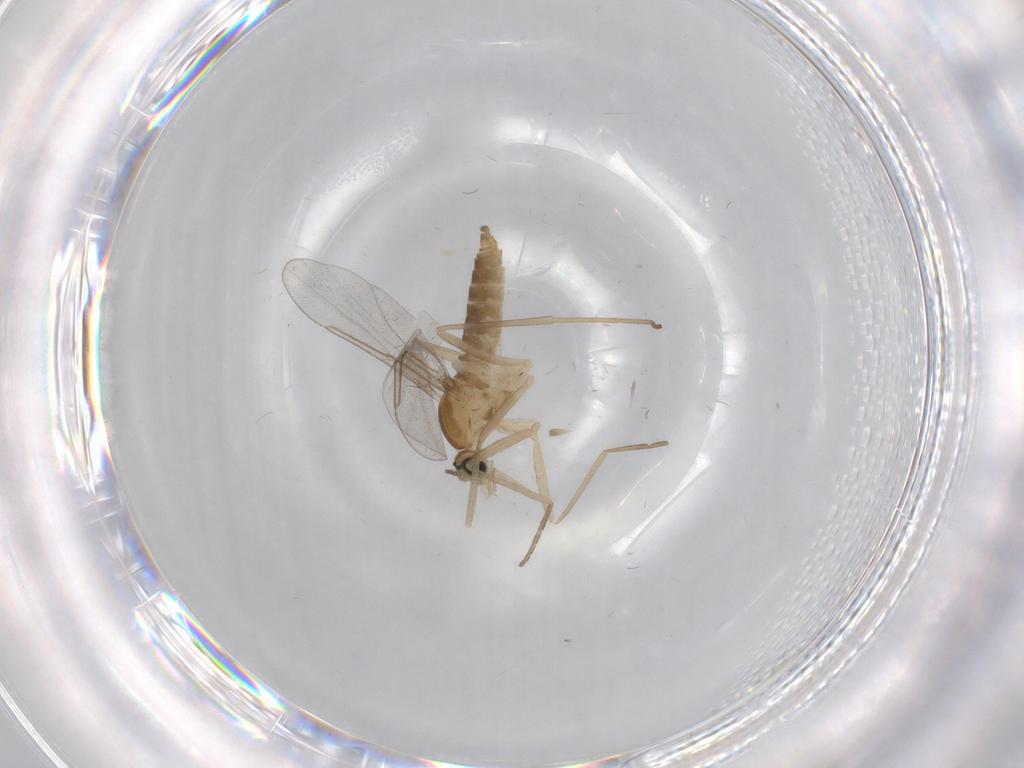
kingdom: Animalia
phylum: Arthropoda
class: Insecta
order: Diptera
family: Cecidomyiidae
